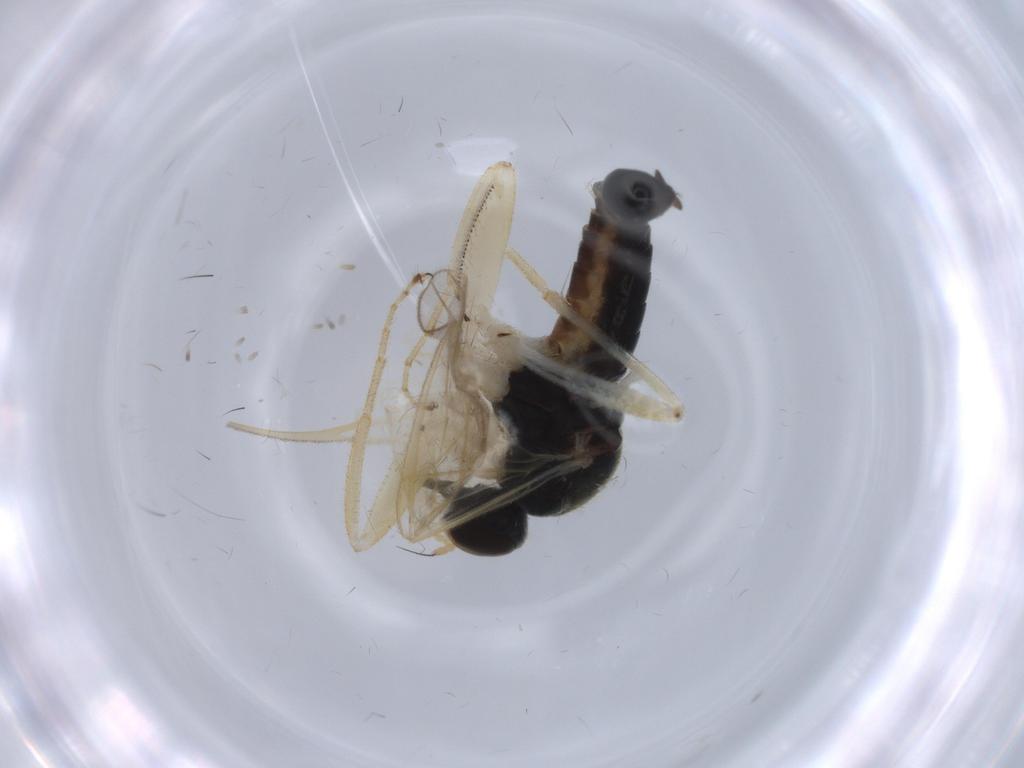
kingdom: Animalia
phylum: Arthropoda
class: Insecta
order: Diptera
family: Hybotidae
